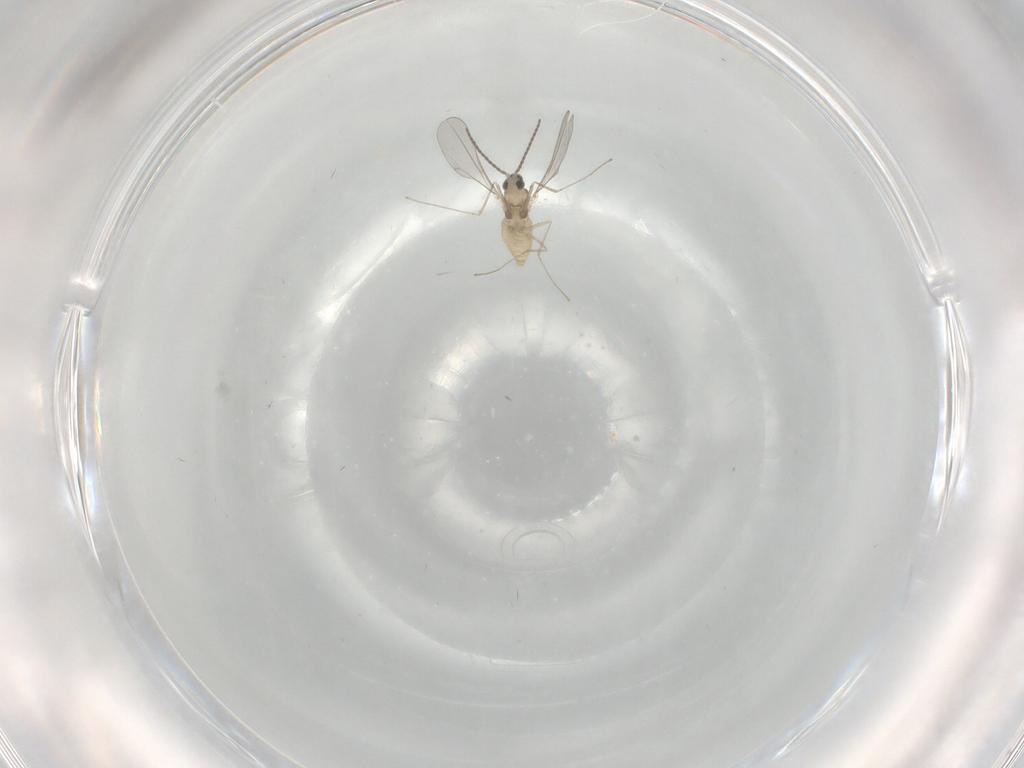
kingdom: Animalia
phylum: Arthropoda
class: Insecta
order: Diptera
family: Cecidomyiidae
